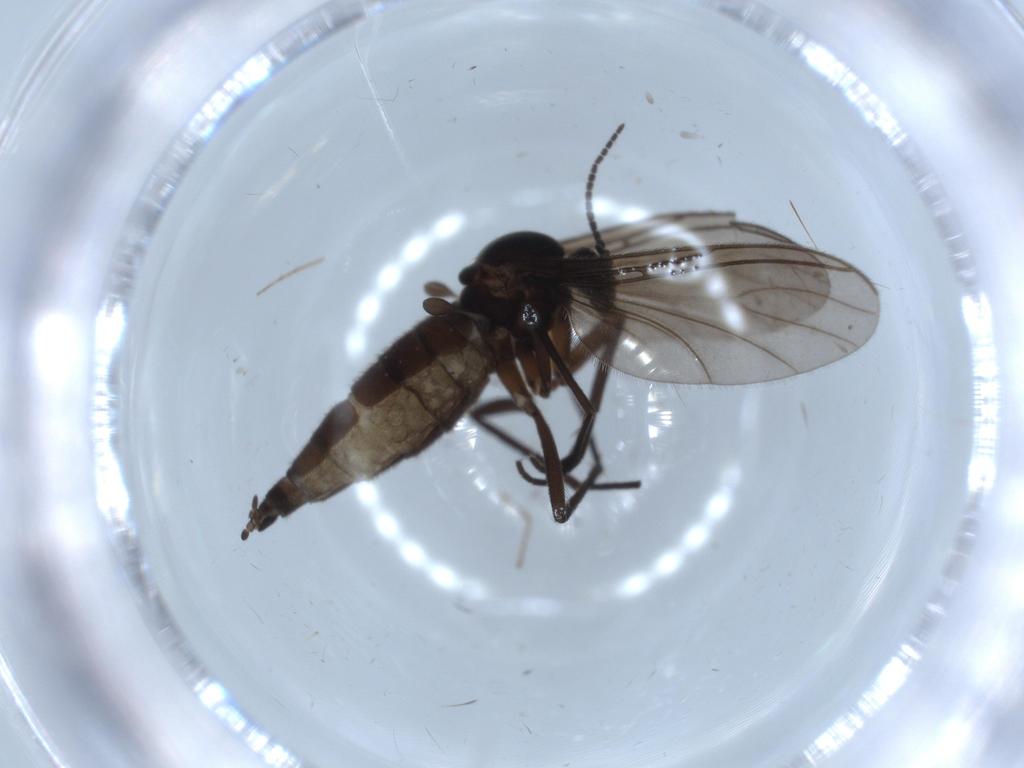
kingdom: Animalia
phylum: Arthropoda
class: Insecta
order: Diptera
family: Sciaridae
